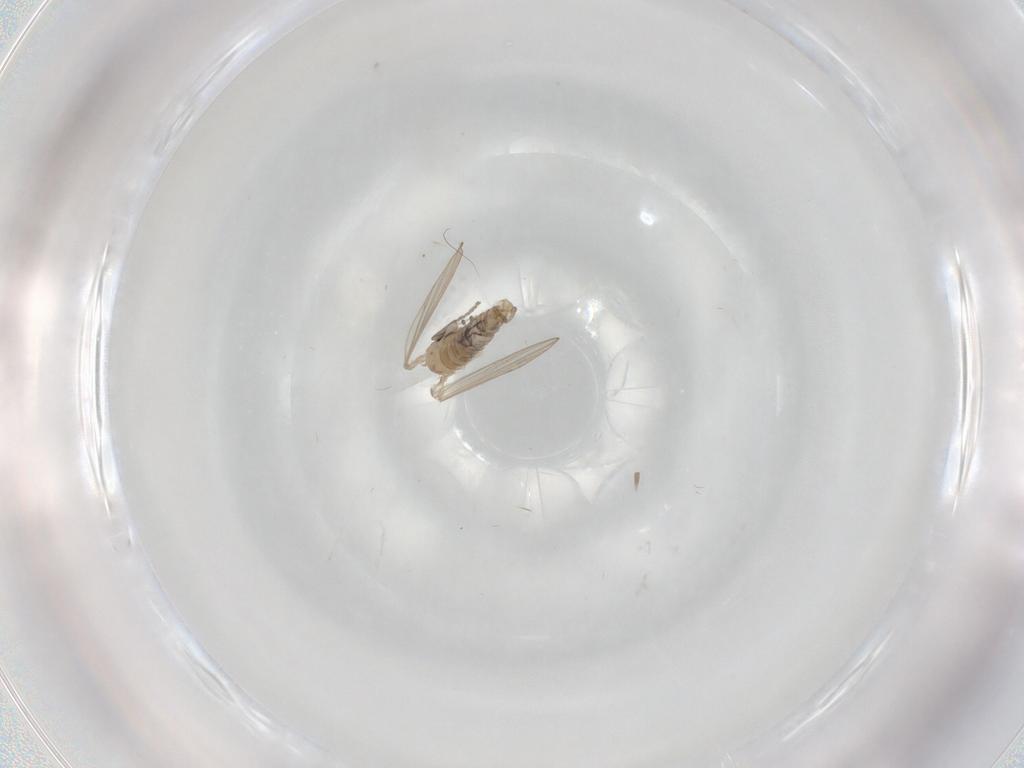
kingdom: Animalia
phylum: Arthropoda
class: Insecta
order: Diptera
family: Psychodidae
